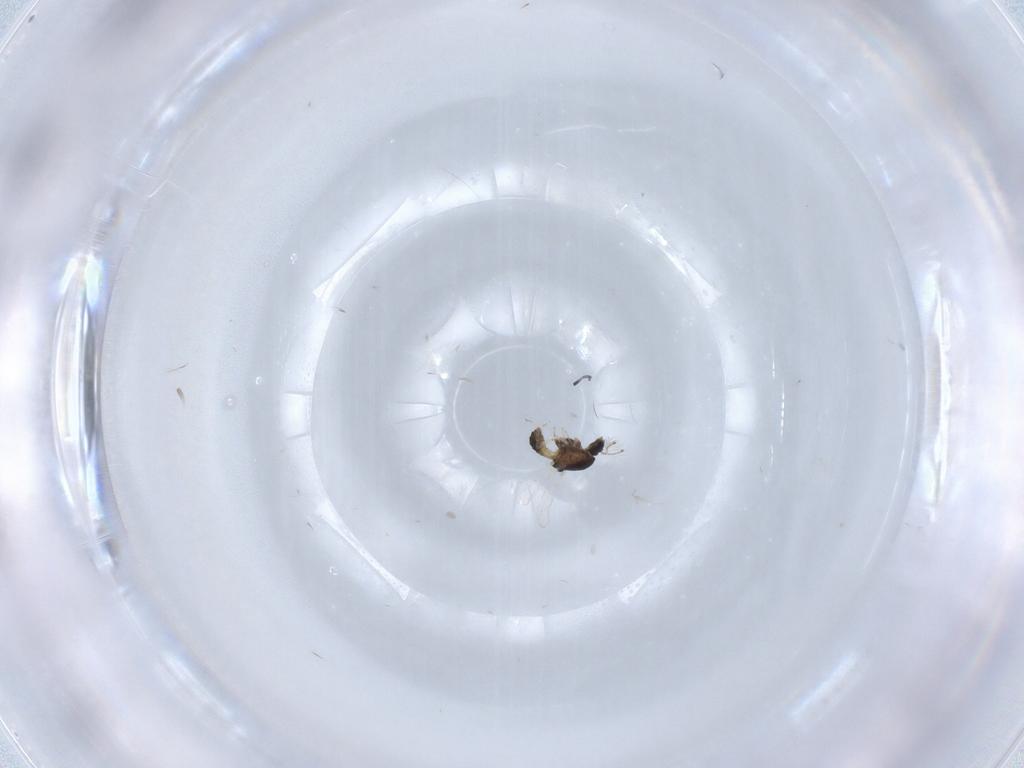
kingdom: Animalia
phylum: Arthropoda
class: Insecta
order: Diptera
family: Chironomidae
